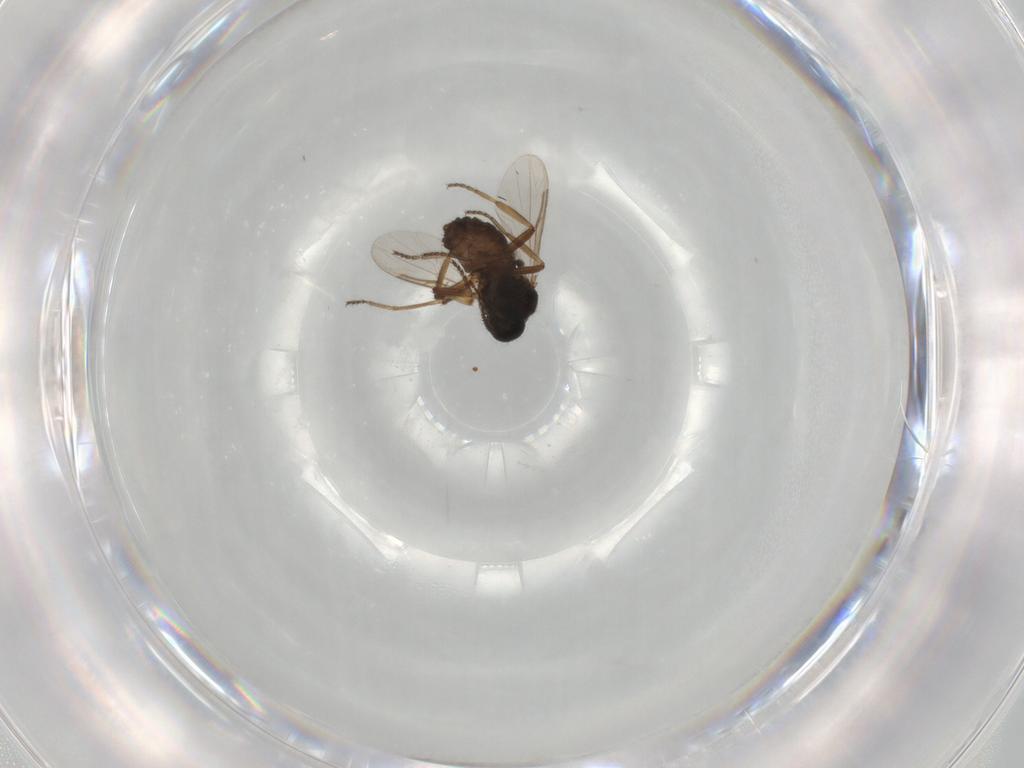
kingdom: Animalia
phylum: Arthropoda
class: Insecta
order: Diptera
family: Ceratopogonidae
